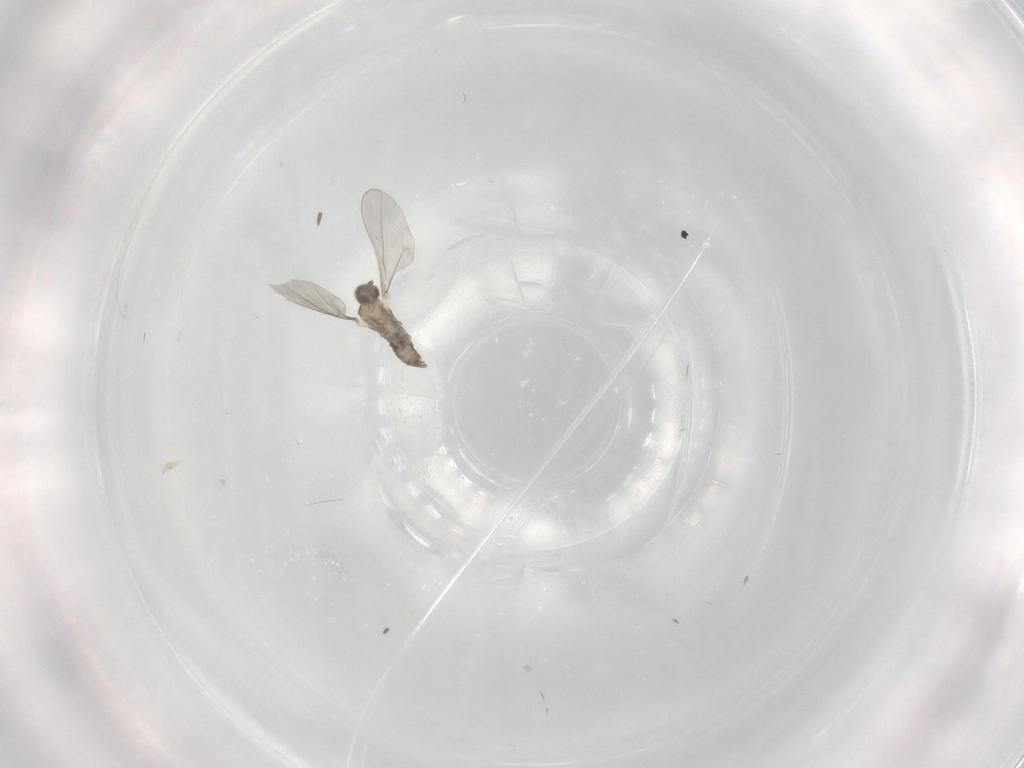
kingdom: Animalia
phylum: Arthropoda
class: Insecta
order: Diptera
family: Cecidomyiidae
